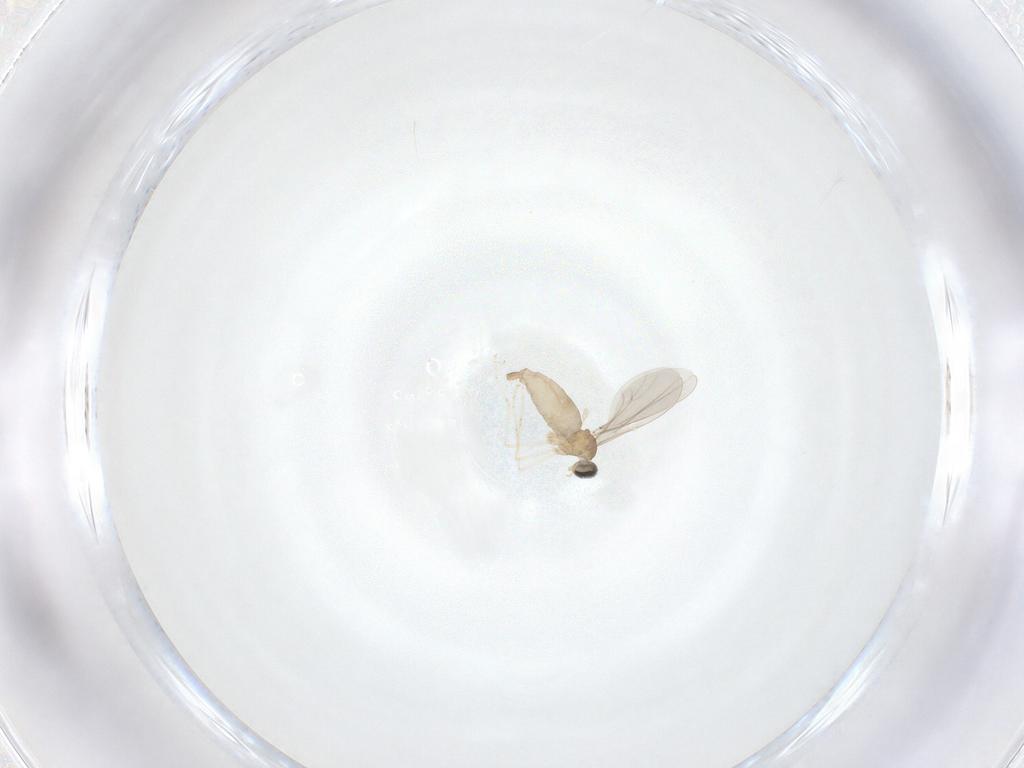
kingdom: Animalia
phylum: Arthropoda
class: Insecta
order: Diptera
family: Cecidomyiidae
